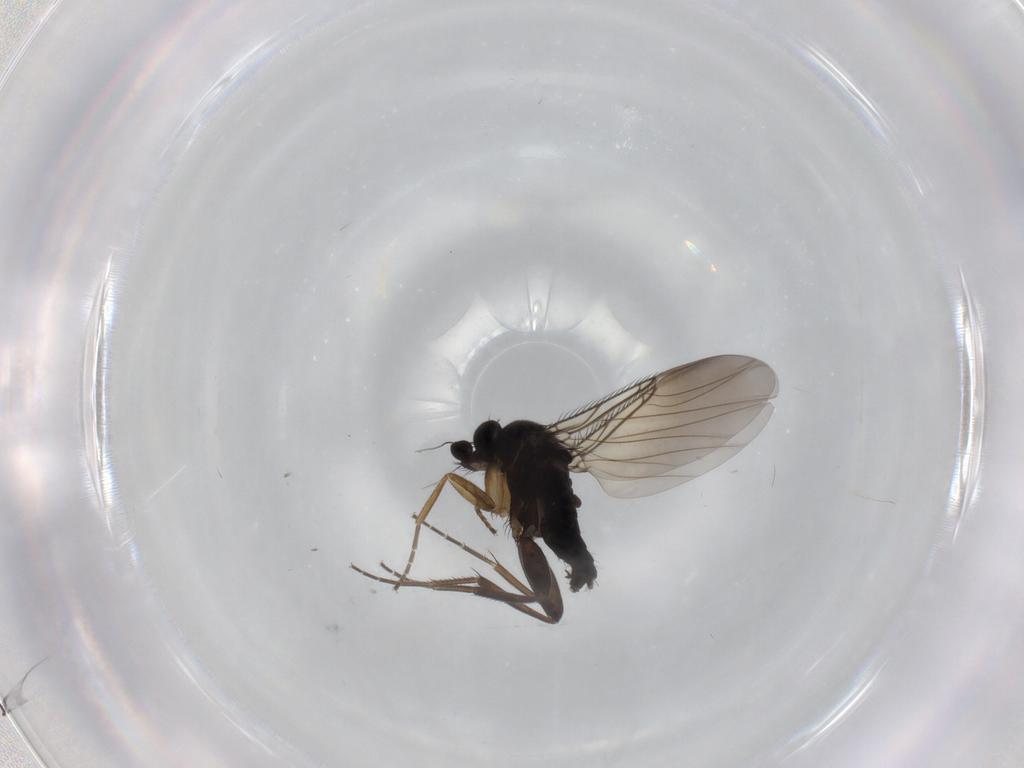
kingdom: Animalia
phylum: Arthropoda
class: Insecta
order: Diptera
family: Phoridae
